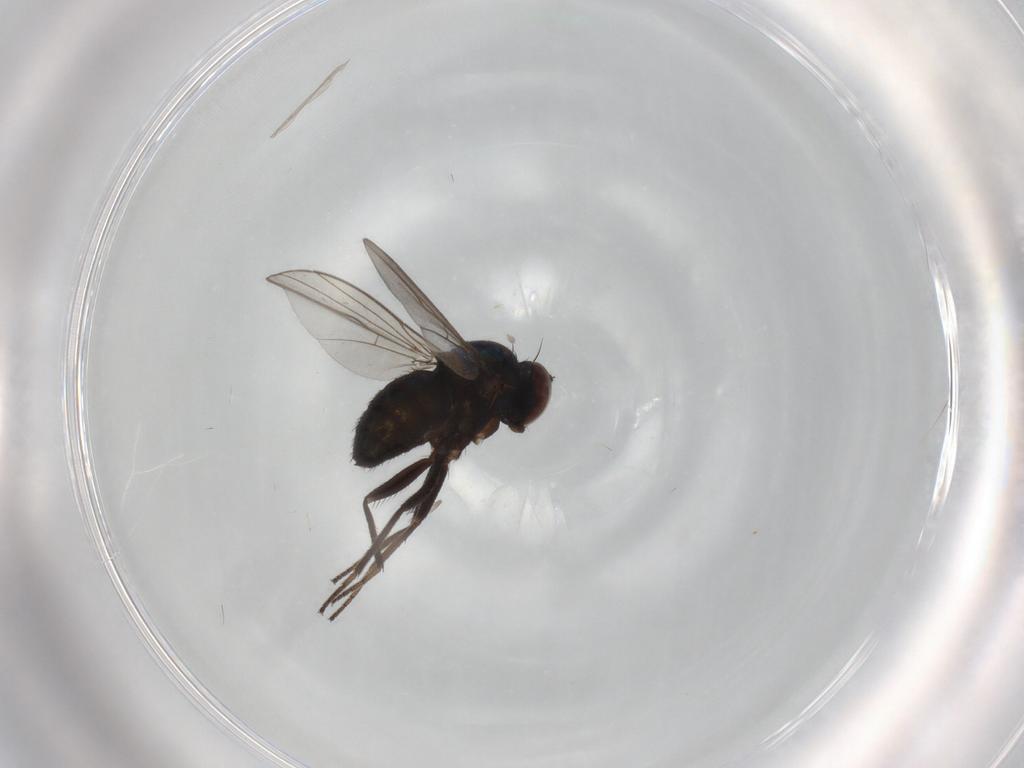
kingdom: Animalia
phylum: Arthropoda
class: Insecta
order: Diptera
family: Dolichopodidae
